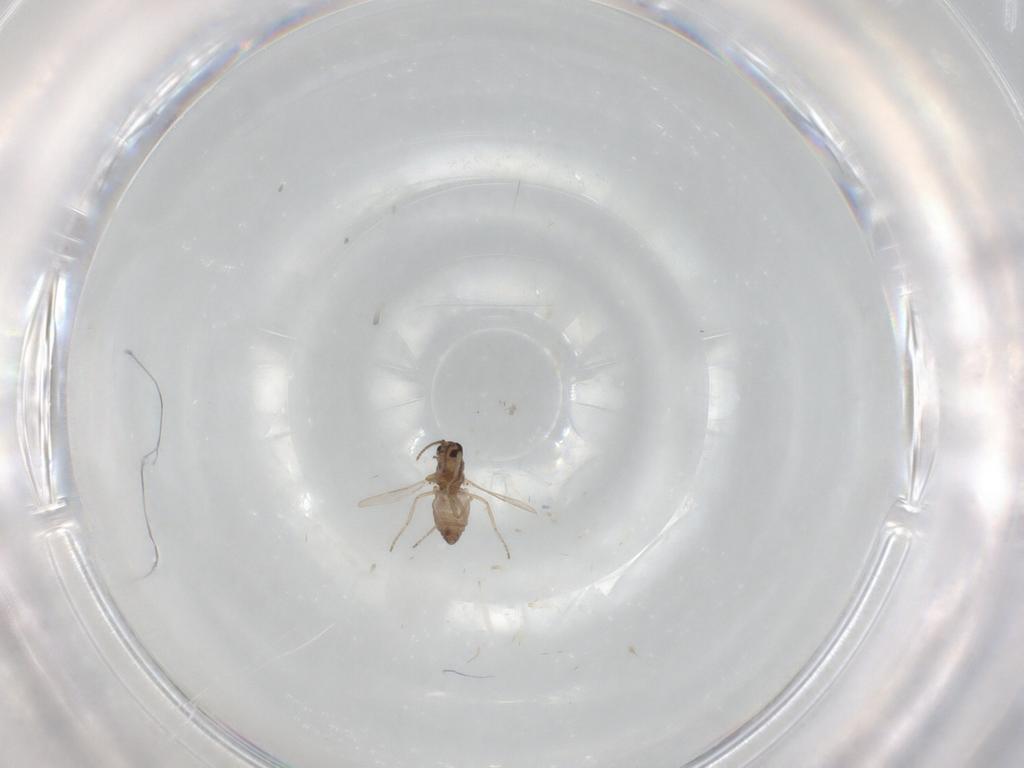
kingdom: Animalia
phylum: Arthropoda
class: Insecta
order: Diptera
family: Ceratopogonidae
